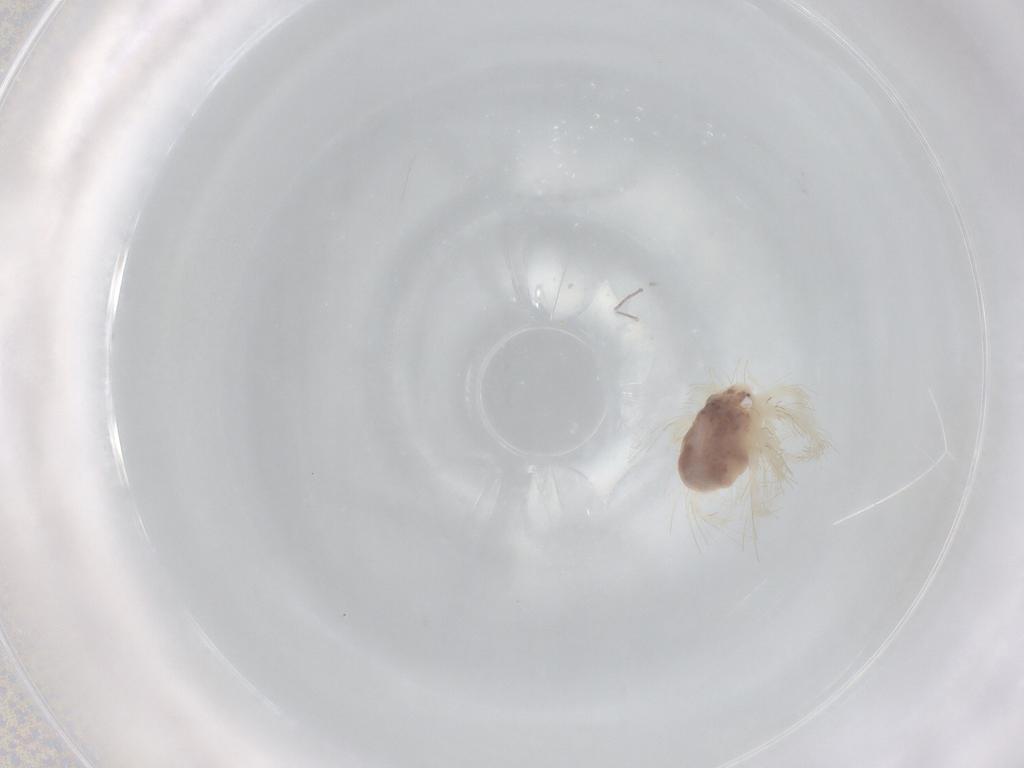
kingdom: Animalia
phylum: Arthropoda
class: Arachnida
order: Trombidiformes
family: Anystidae
